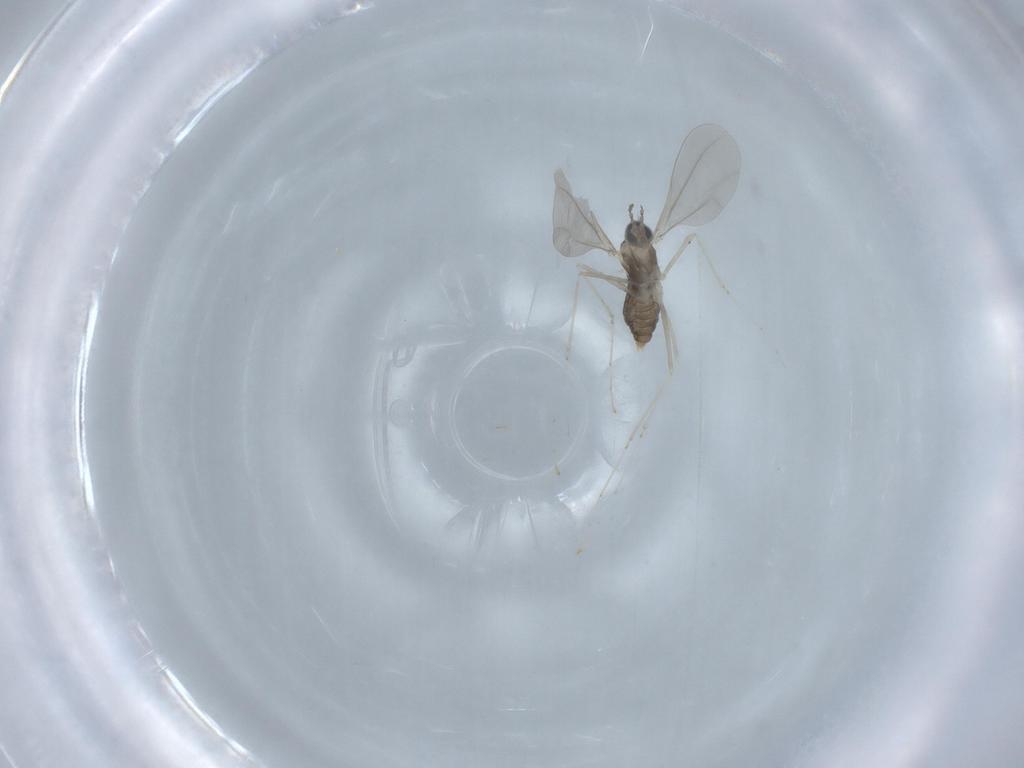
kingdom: Animalia
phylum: Arthropoda
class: Insecta
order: Diptera
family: Cecidomyiidae
